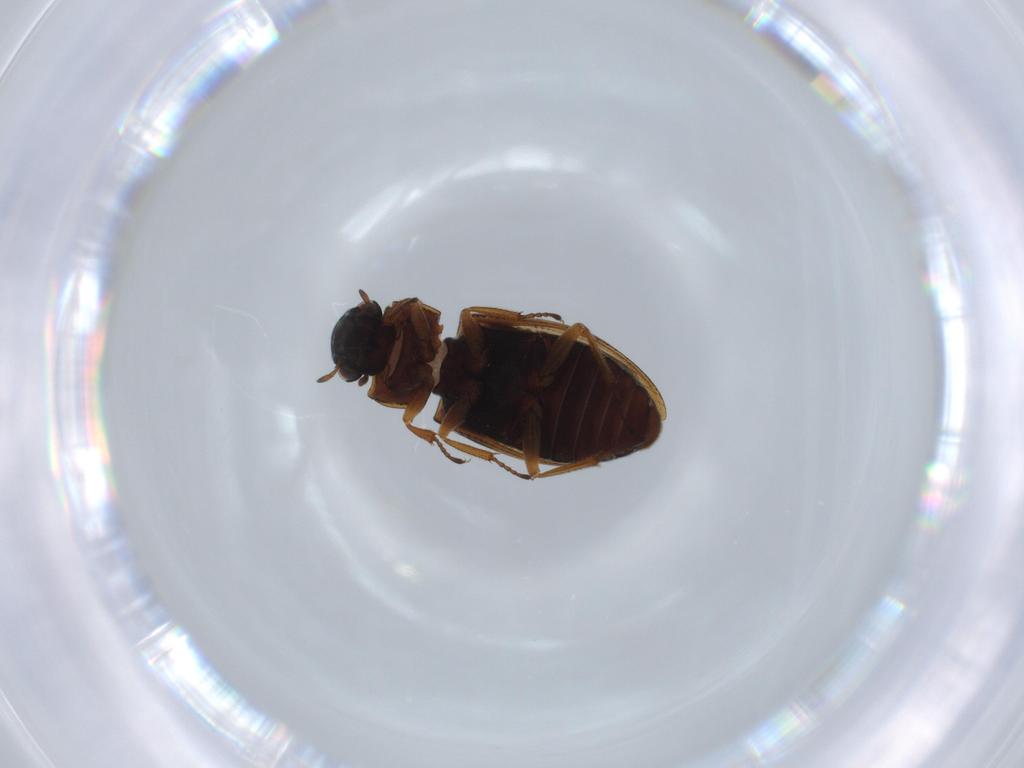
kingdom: Animalia
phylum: Arthropoda
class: Insecta
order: Coleoptera
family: Helophoridae
